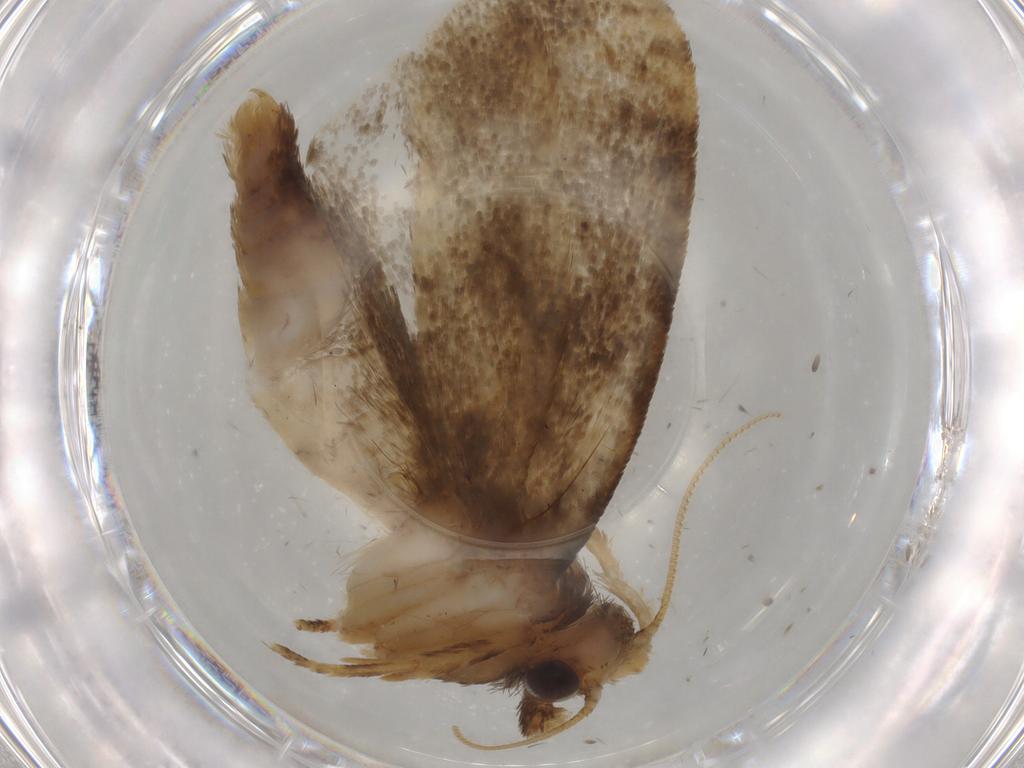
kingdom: Animalia
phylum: Arthropoda
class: Insecta
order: Lepidoptera
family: Tineidae
